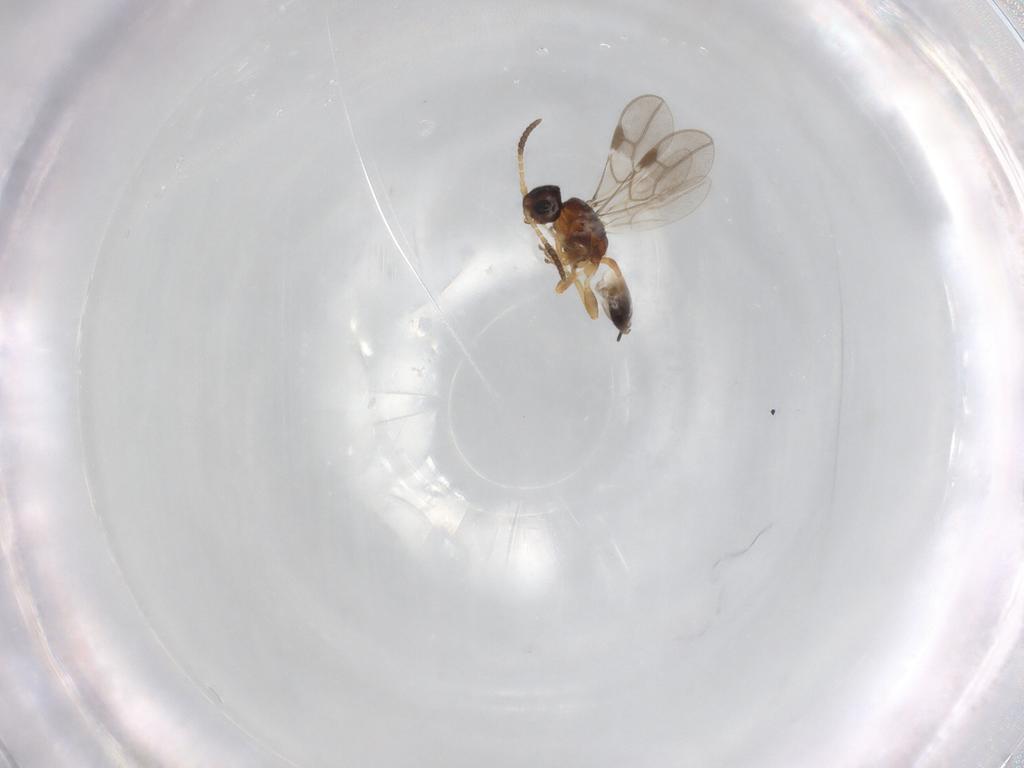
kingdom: Animalia
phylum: Arthropoda
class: Insecta
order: Hymenoptera
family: Braconidae
